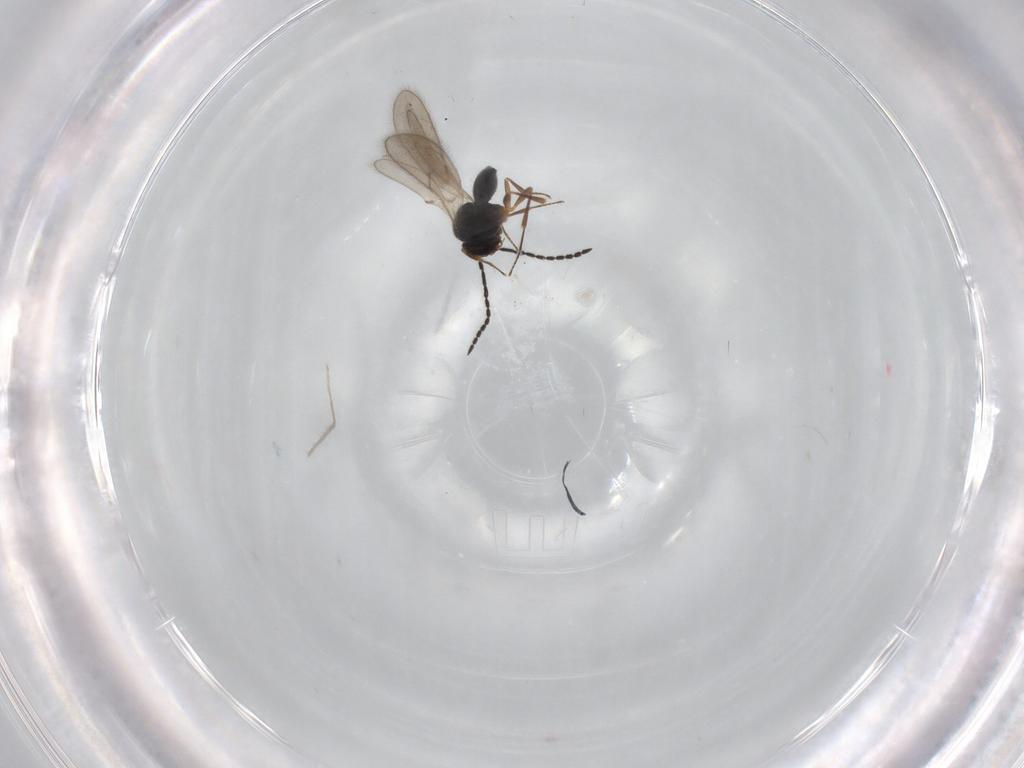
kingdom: Animalia
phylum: Arthropoda
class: Insecta
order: Hymenoptera
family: Scelionidae
